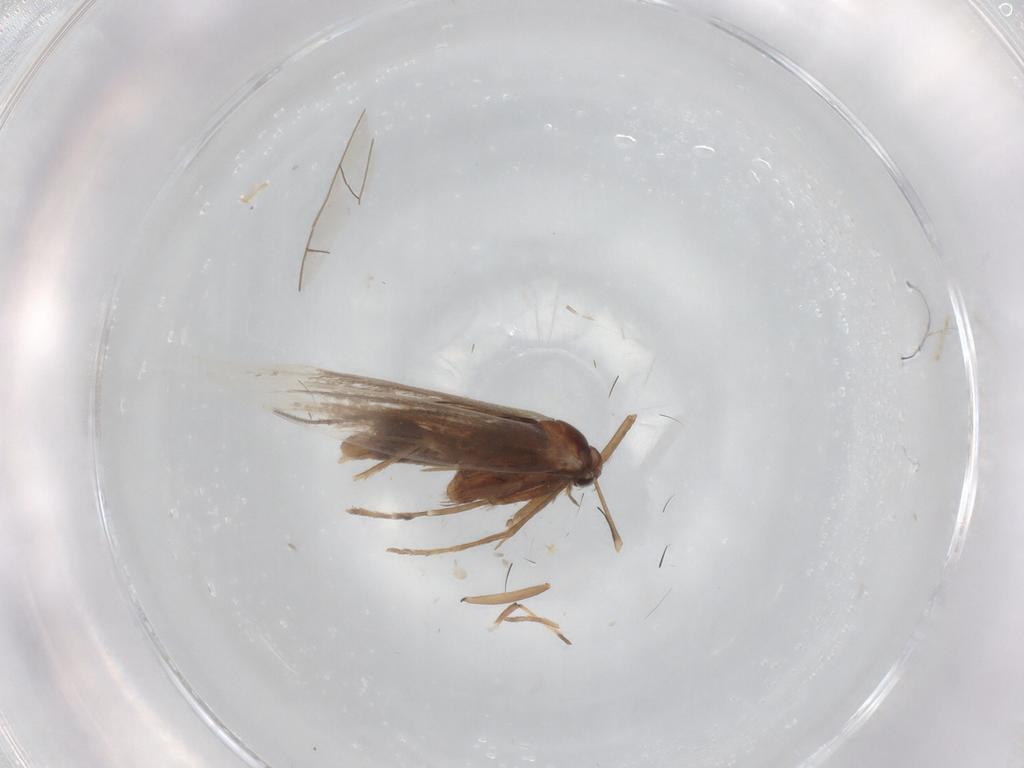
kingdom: Animalia
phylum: Arthropoda
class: Insecta
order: Lepidoptera
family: Gracillariidae
